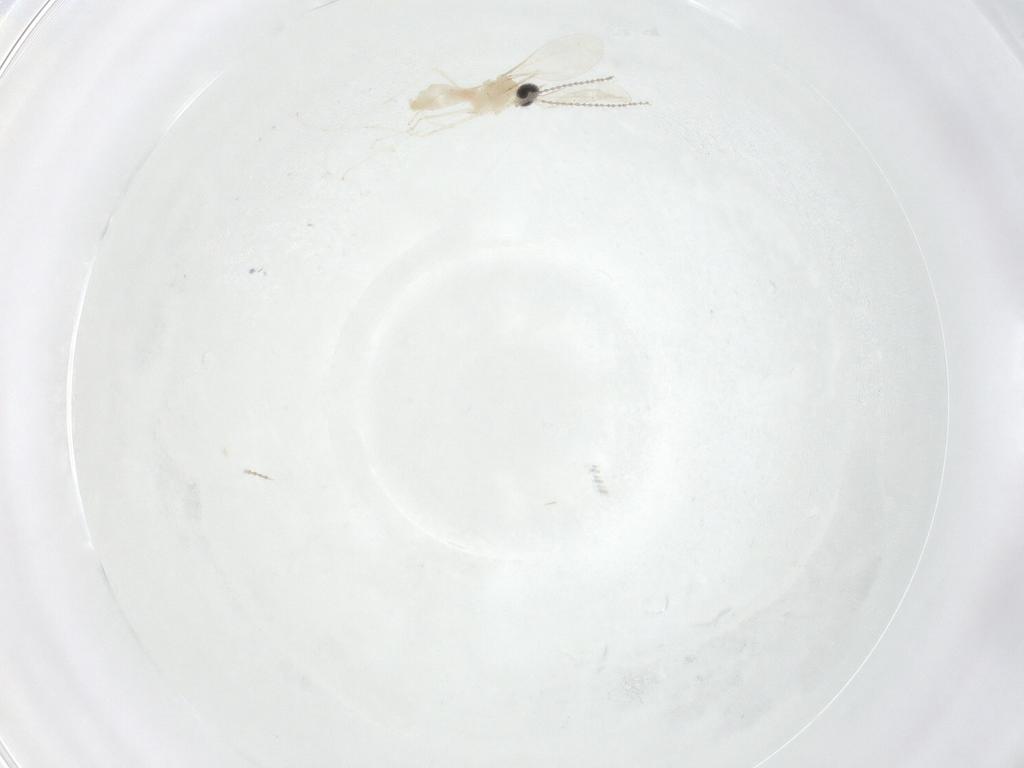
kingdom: Animalia
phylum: Arthropoda
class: Insecta
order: Diptera
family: Cecidomyiidae
